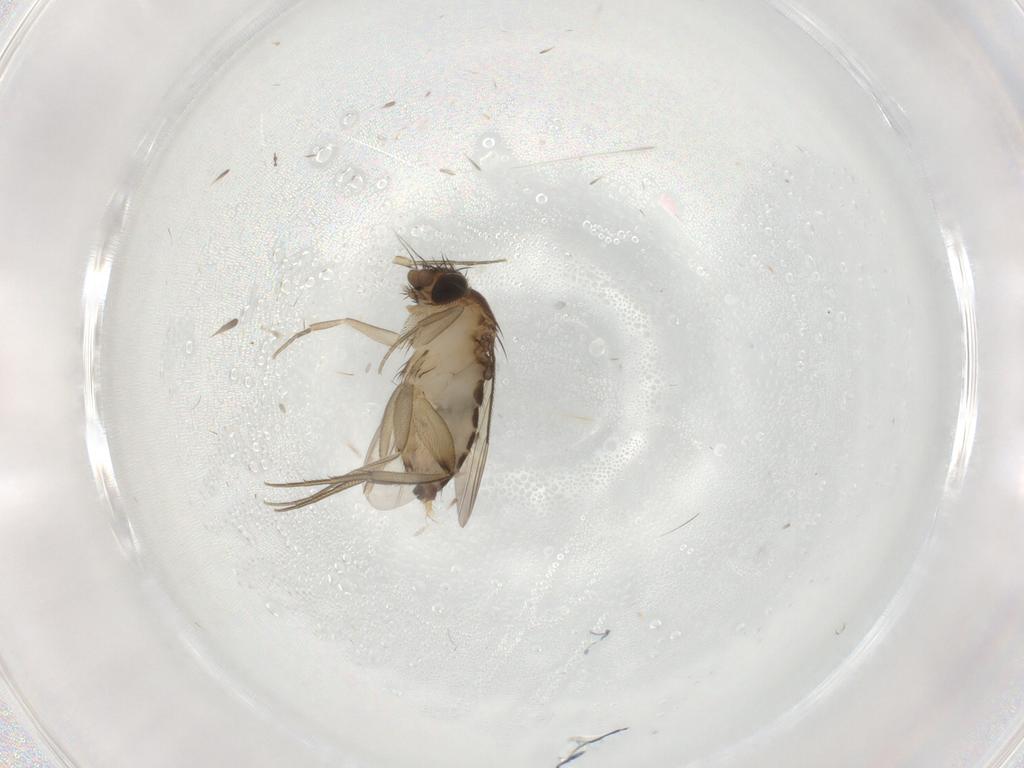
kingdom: Animalia
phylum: Arthropoda
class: Insecta
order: Diptera
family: Phoridae
